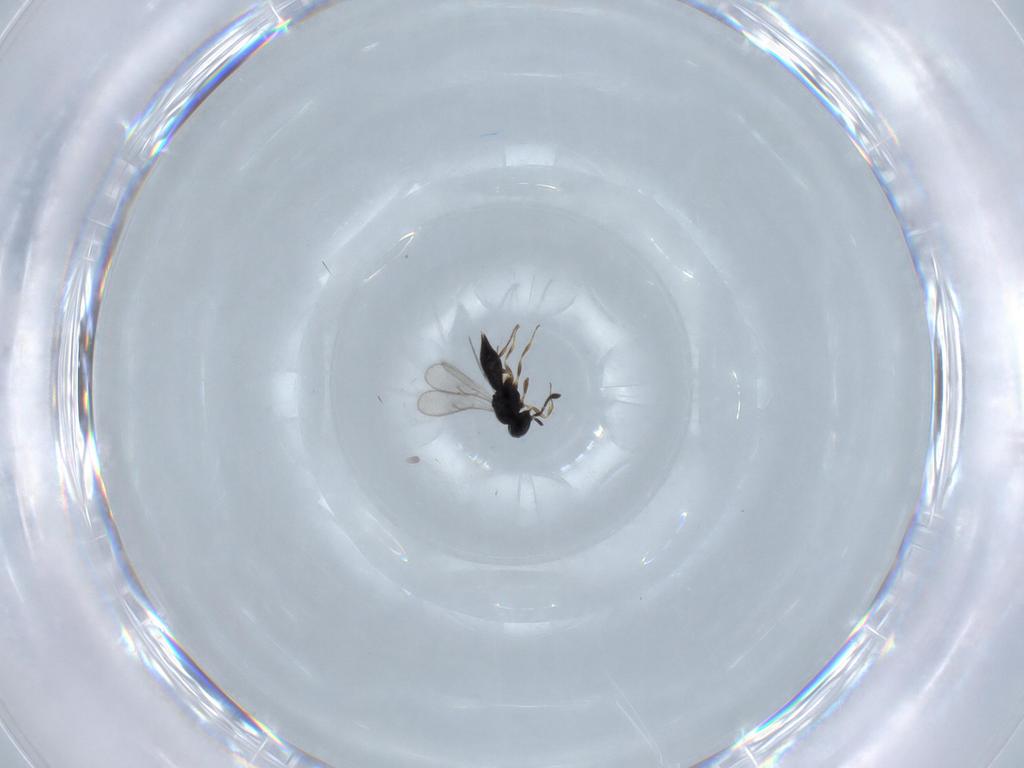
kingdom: Animalia
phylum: Arthropoda
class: Insecta
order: Hymenoptera
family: Scelionidae
